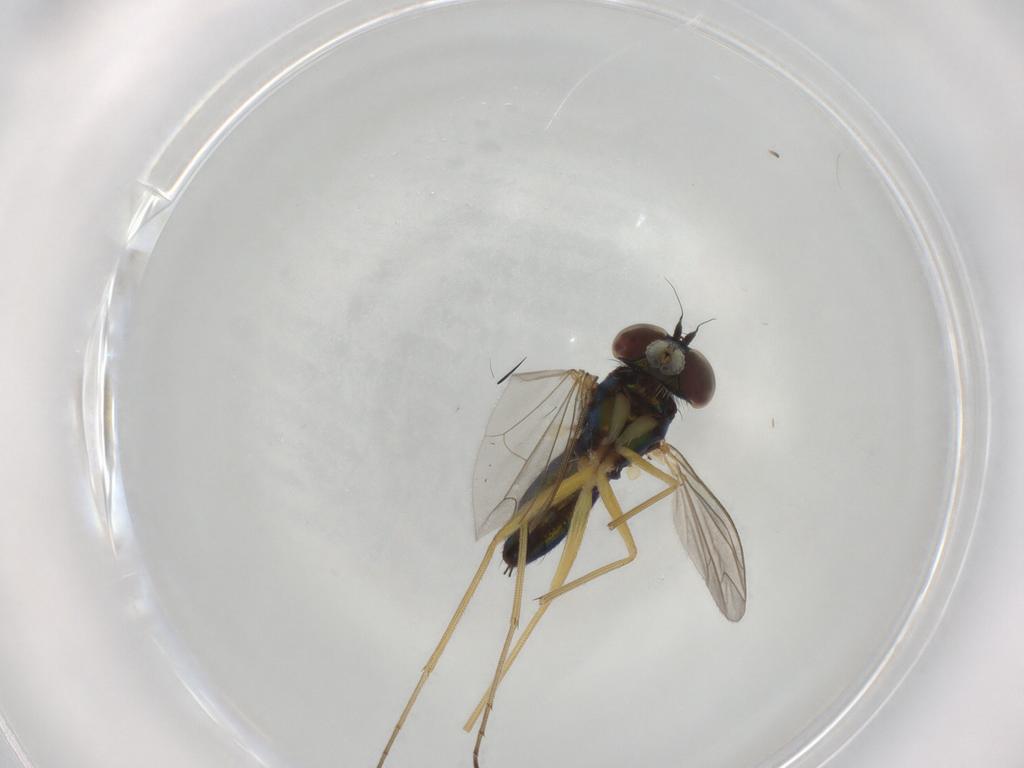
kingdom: Animalia
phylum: Arthropoda
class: Insecta
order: Diptera
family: Dolichopodidae
